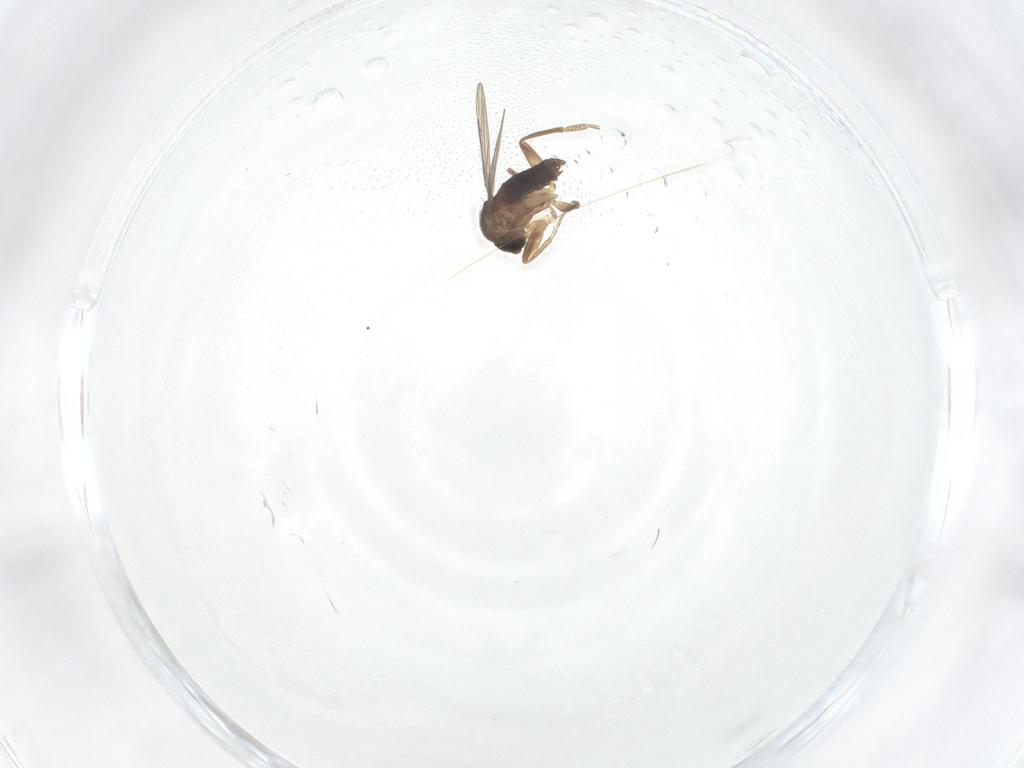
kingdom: Animalia
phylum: Arthropoda
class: Insecta
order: Diptera
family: Phoridae
